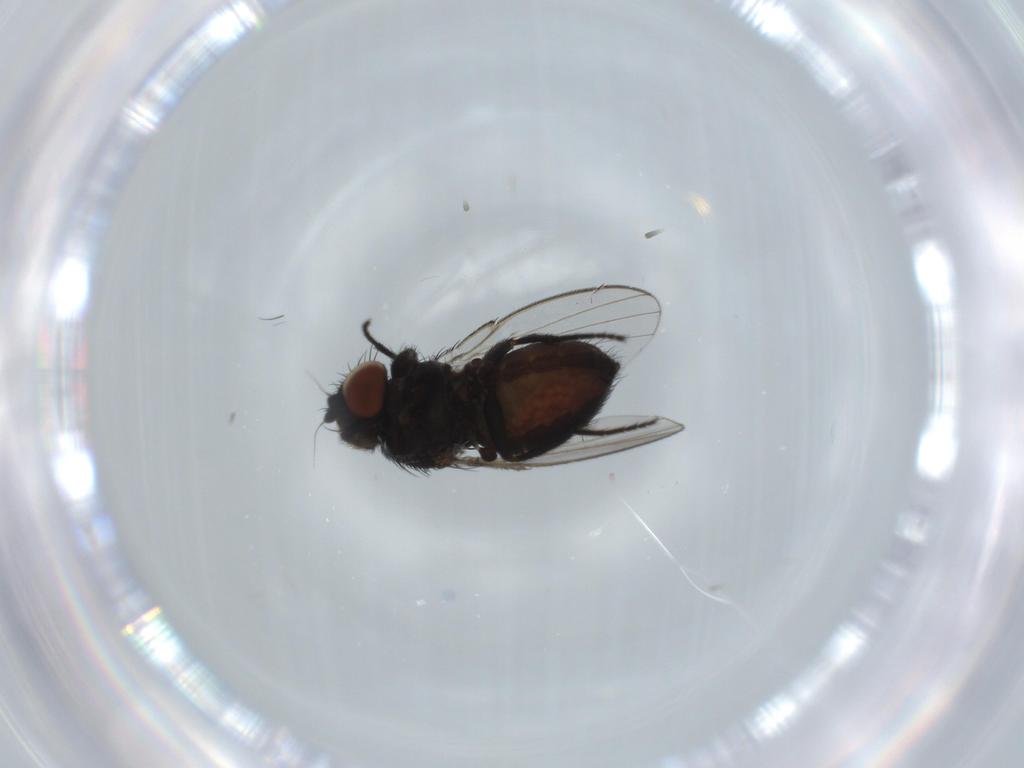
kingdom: Animalia
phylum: Arthropoda
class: Insecta
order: Diptera
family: Milichiidae
